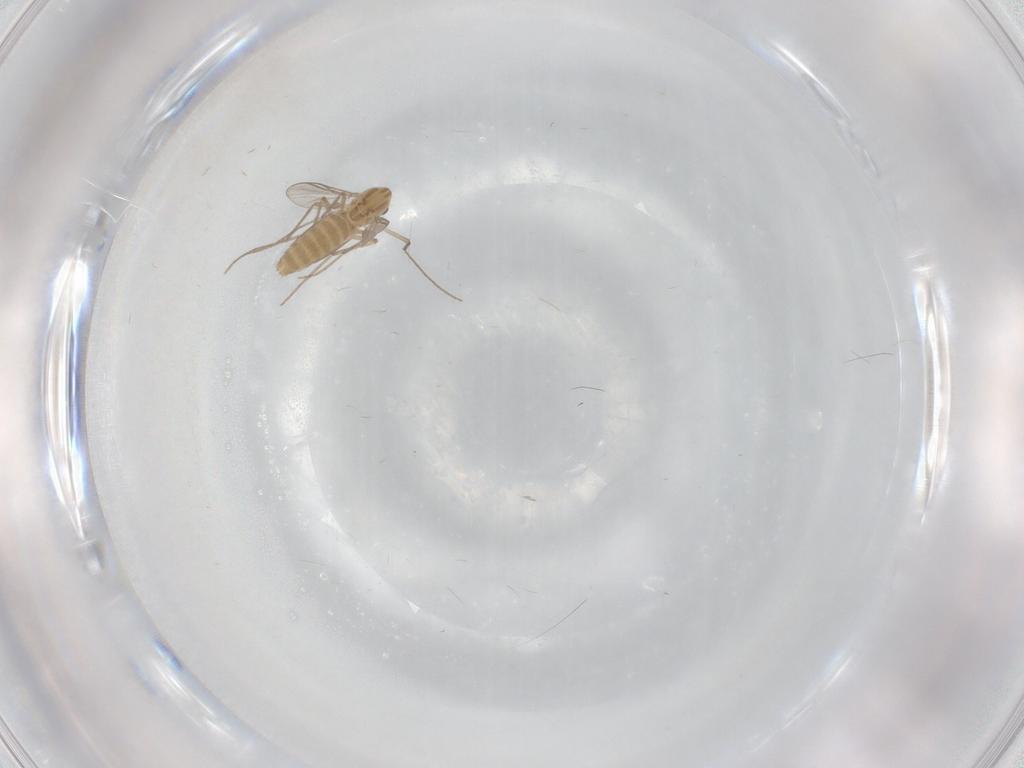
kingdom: Animalia
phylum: Arthropoda
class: Insecta
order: Diptera
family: Chironomidae
